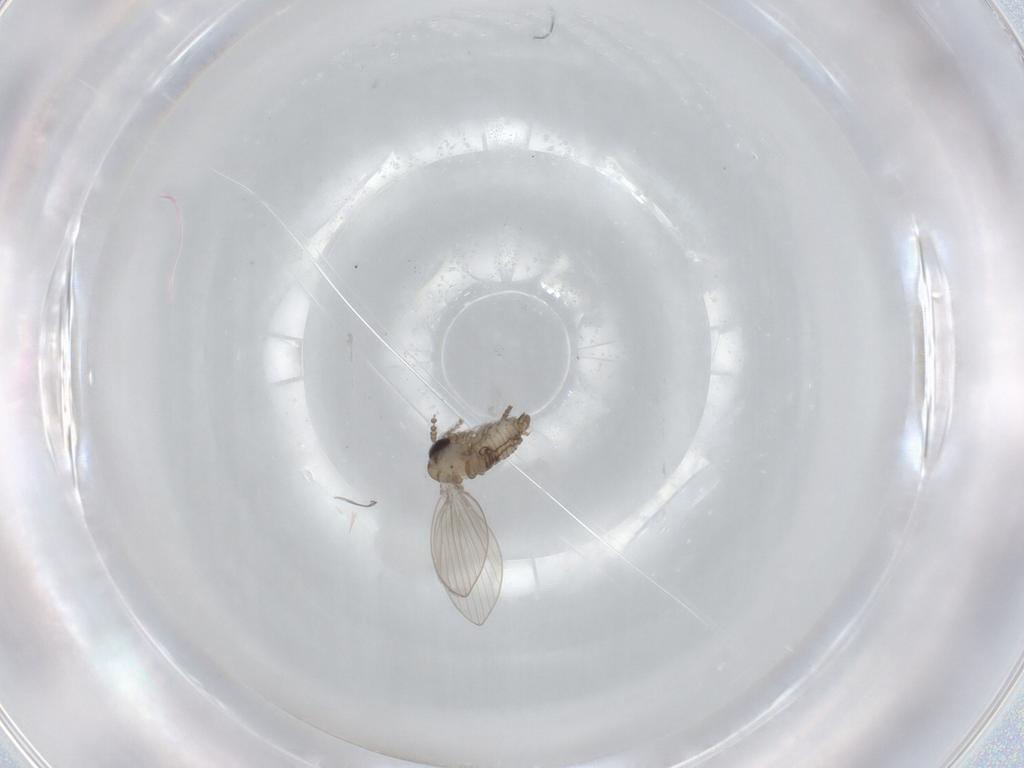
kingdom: Animalia
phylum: Arthropoda
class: Insecta
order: Diptera
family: Psychodidae
